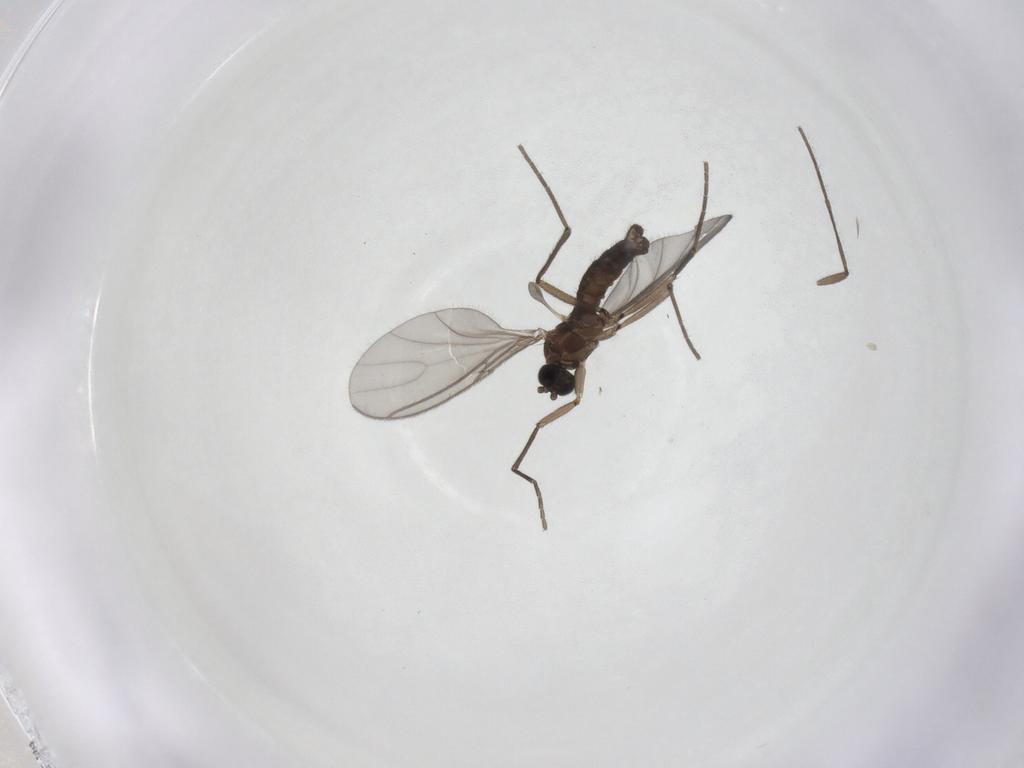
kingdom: Animalia
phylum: Arthropoda
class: Insecta
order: Diptera
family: Sciaridae
